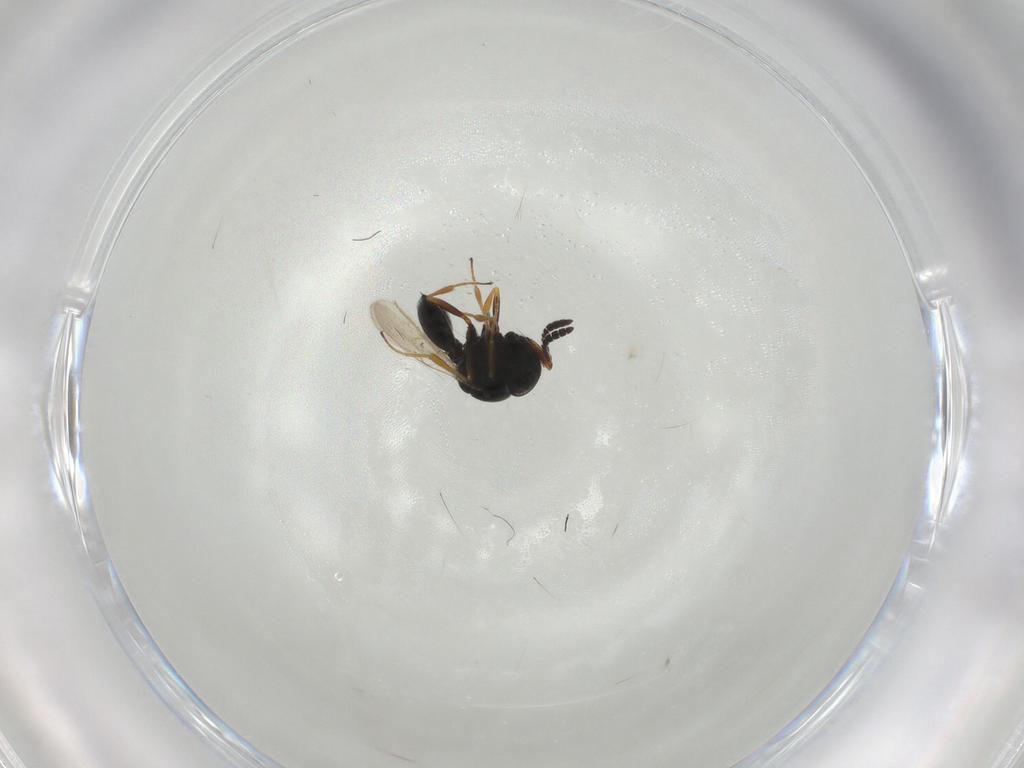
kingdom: Animalia
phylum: Arthropoda
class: Insecta
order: Hymenoptera
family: Scelionidae
